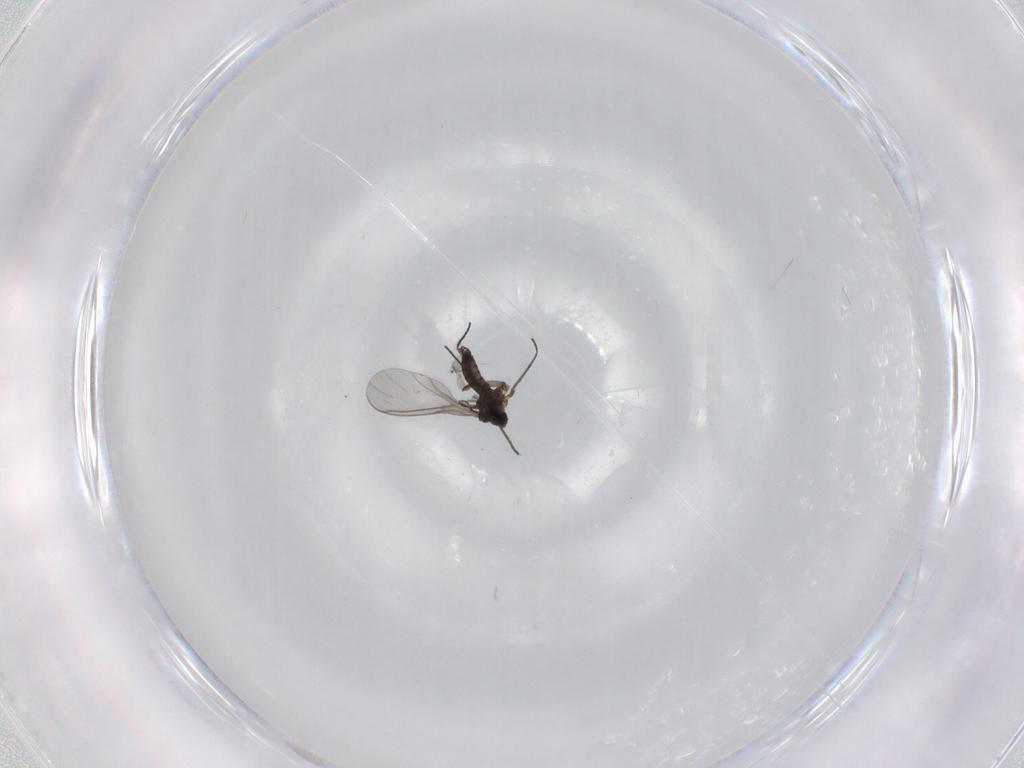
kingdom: Animalia
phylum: Arthropoda
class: Insecta
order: Diptera
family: Sciaridae
